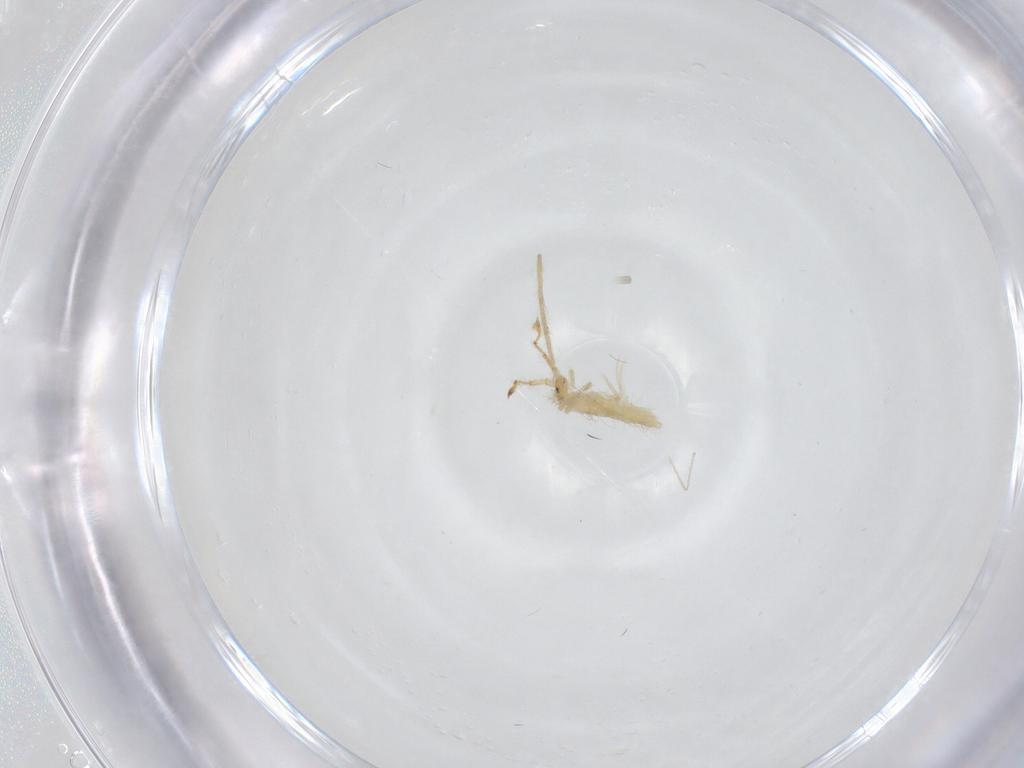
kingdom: Animalia
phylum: Arthropoda
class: Collembola
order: Entomobryomorpha
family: Entomobryidae
